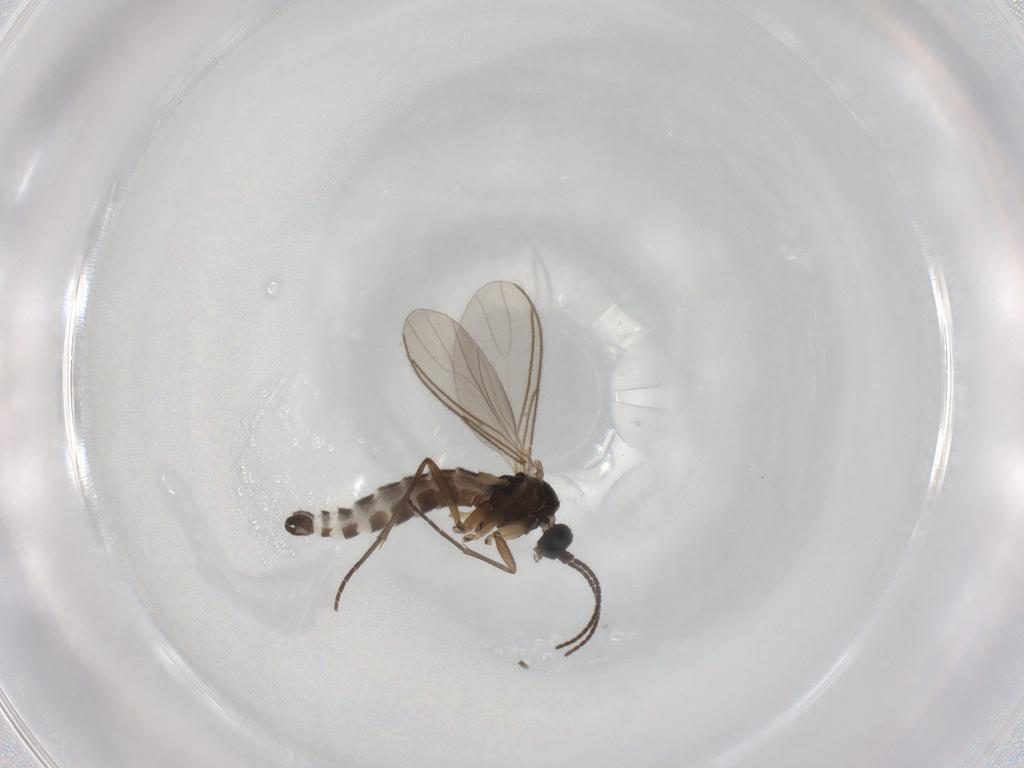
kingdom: Animalia
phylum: Arthropoda
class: Insecta
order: Diptera
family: Sciaridae
